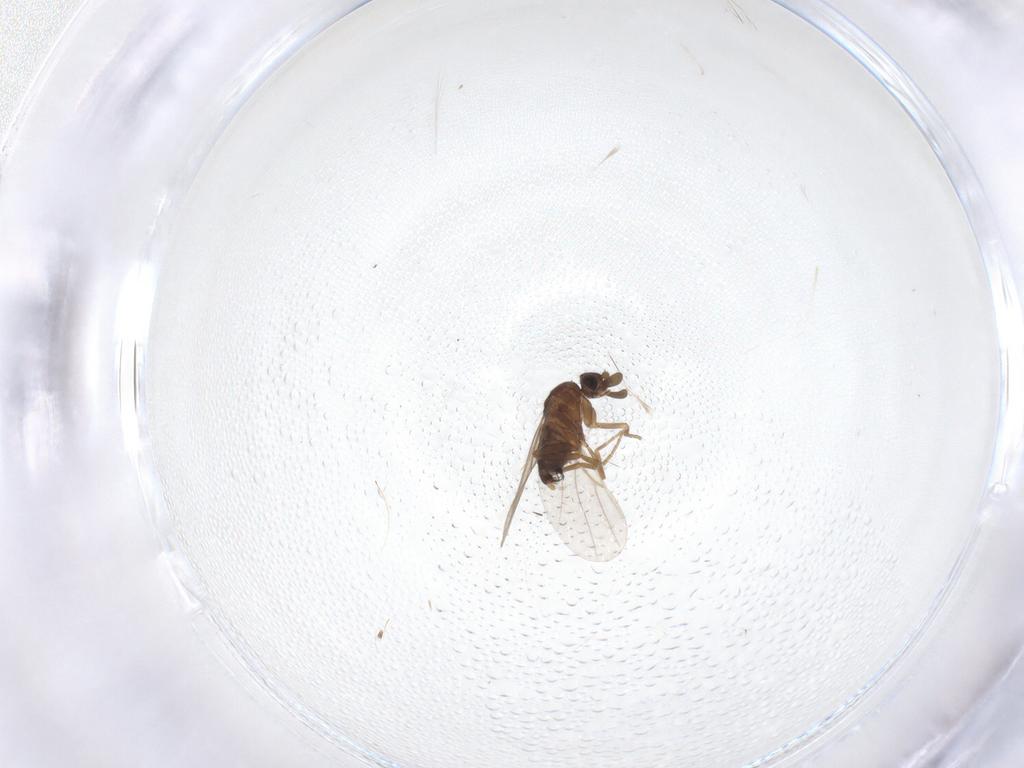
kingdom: Animalia
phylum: Arthropoda
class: Insecta
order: Diptera
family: Phoridae
